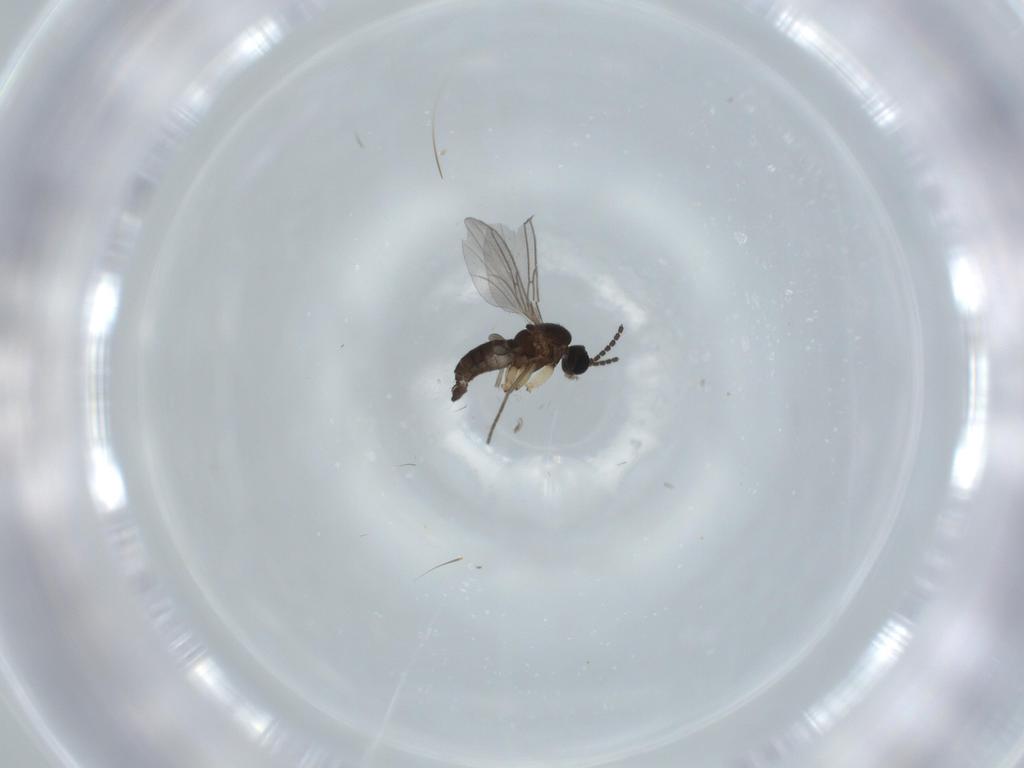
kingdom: Animalia
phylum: Arthropoda
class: Insecta
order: Diptera
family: Sciaridae
